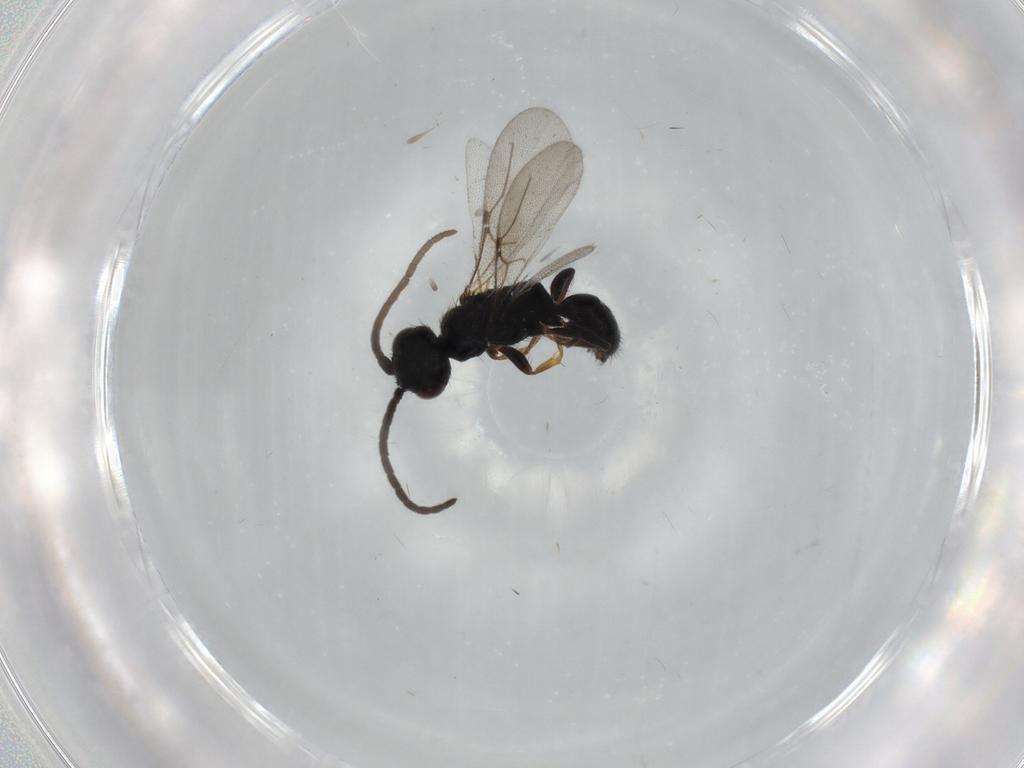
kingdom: Animalia
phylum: Arthropoda
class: Insecta
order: Hymenoptera
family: Bethylidae
